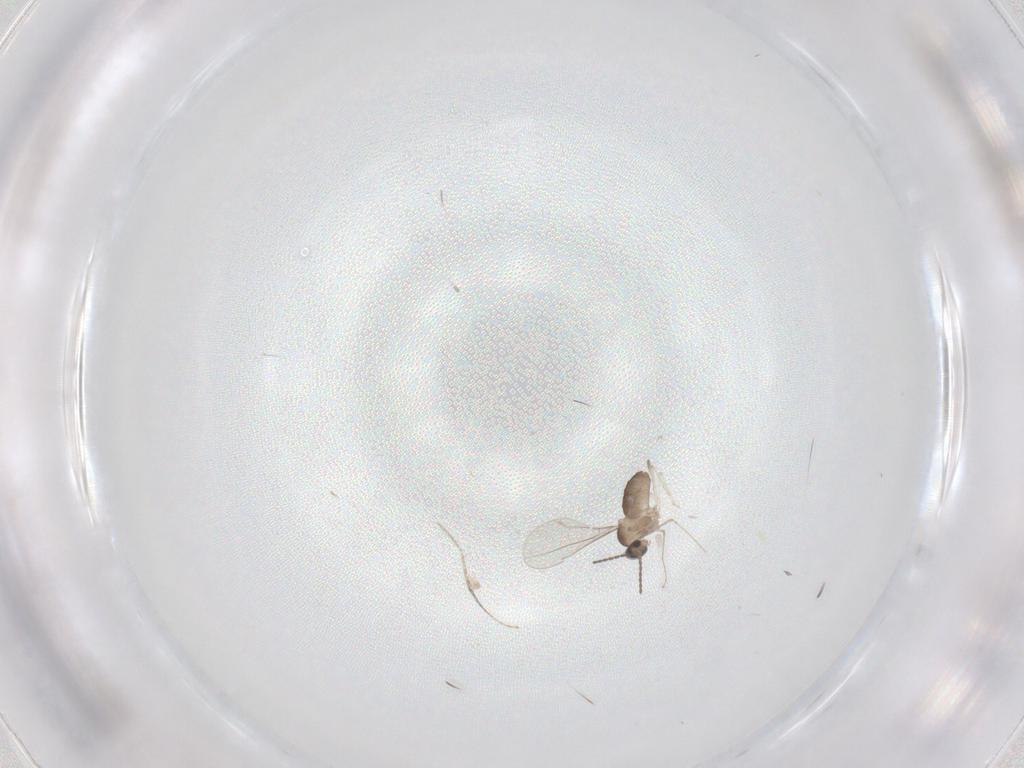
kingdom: Animalia
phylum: Arthropoda
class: Insecta
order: Diptera
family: Cecidomyiidae
